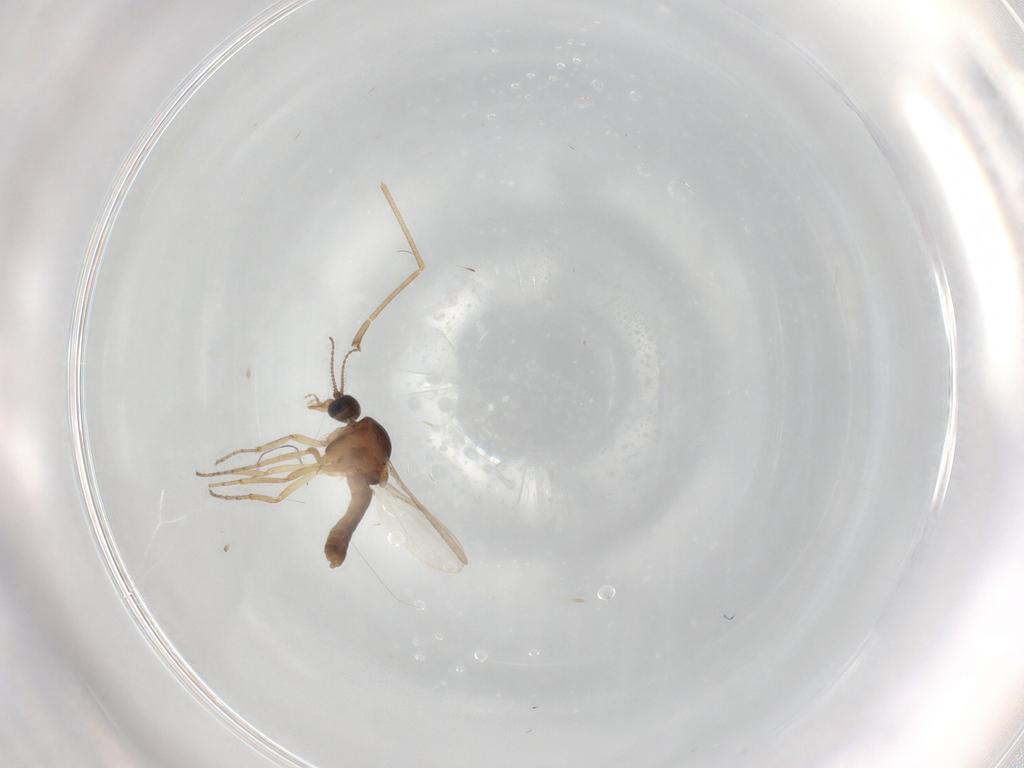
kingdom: Animalia
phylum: Arthropoda
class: Insecta
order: Diptera
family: Cecidomyiidae
